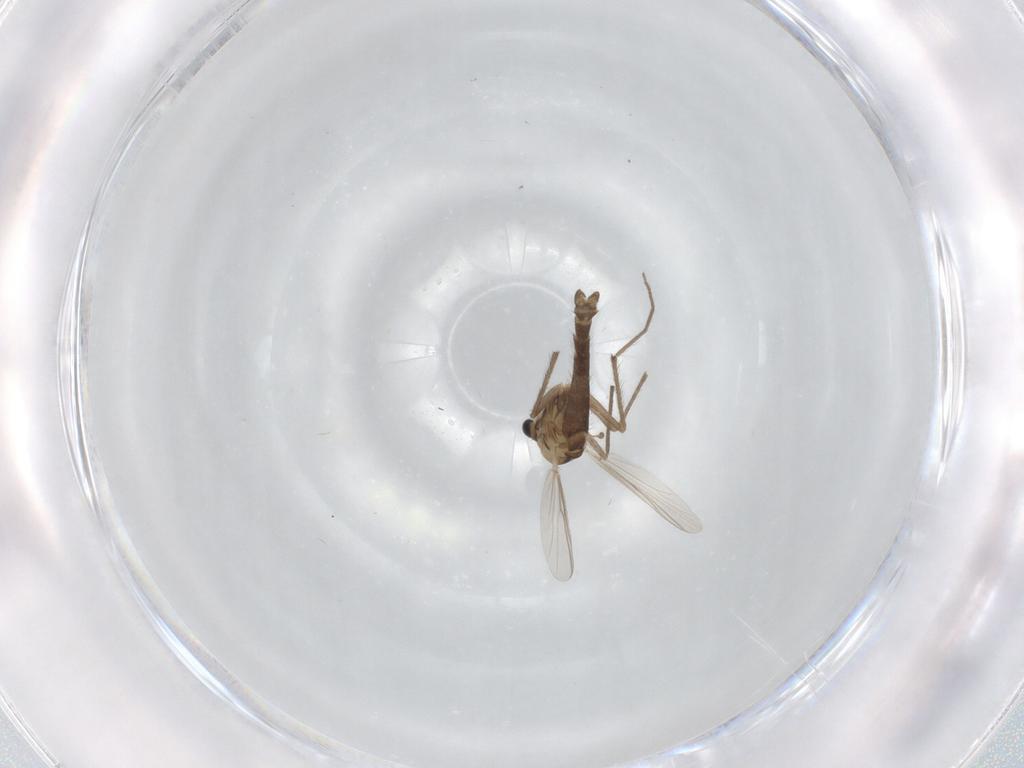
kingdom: Animalia
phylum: Arthropoda
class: Insecta
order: Diptera
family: Chironomidae
